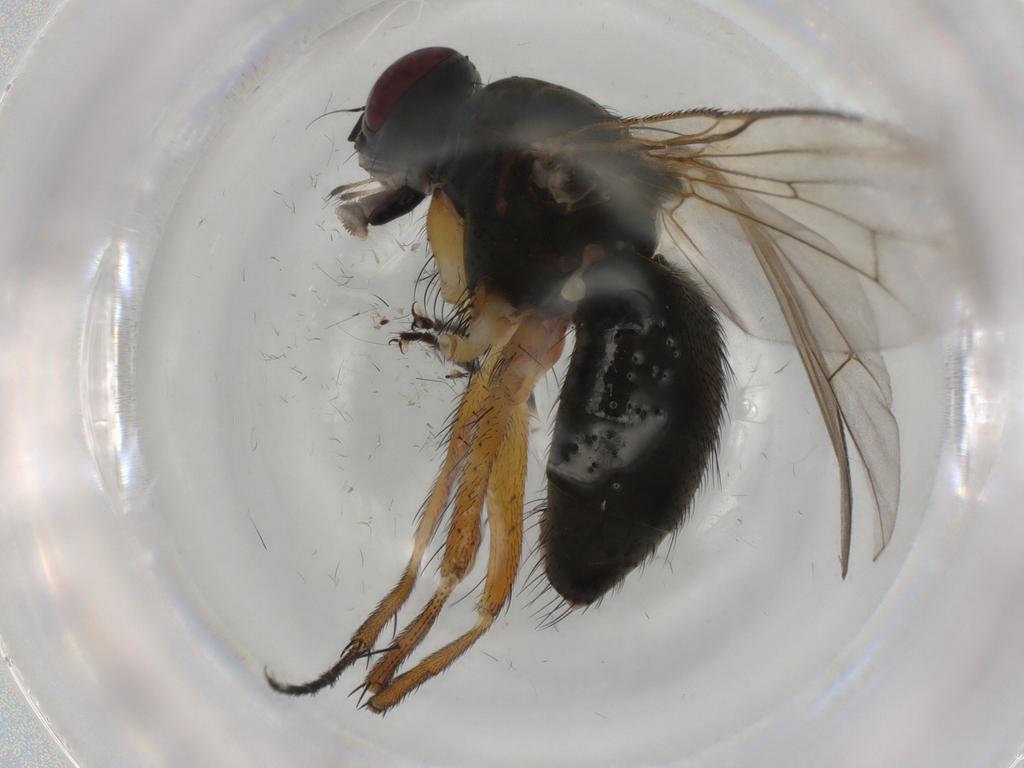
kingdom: Animalia
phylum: Arthropoda
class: Insecta
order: Diptera
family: Muscidae
